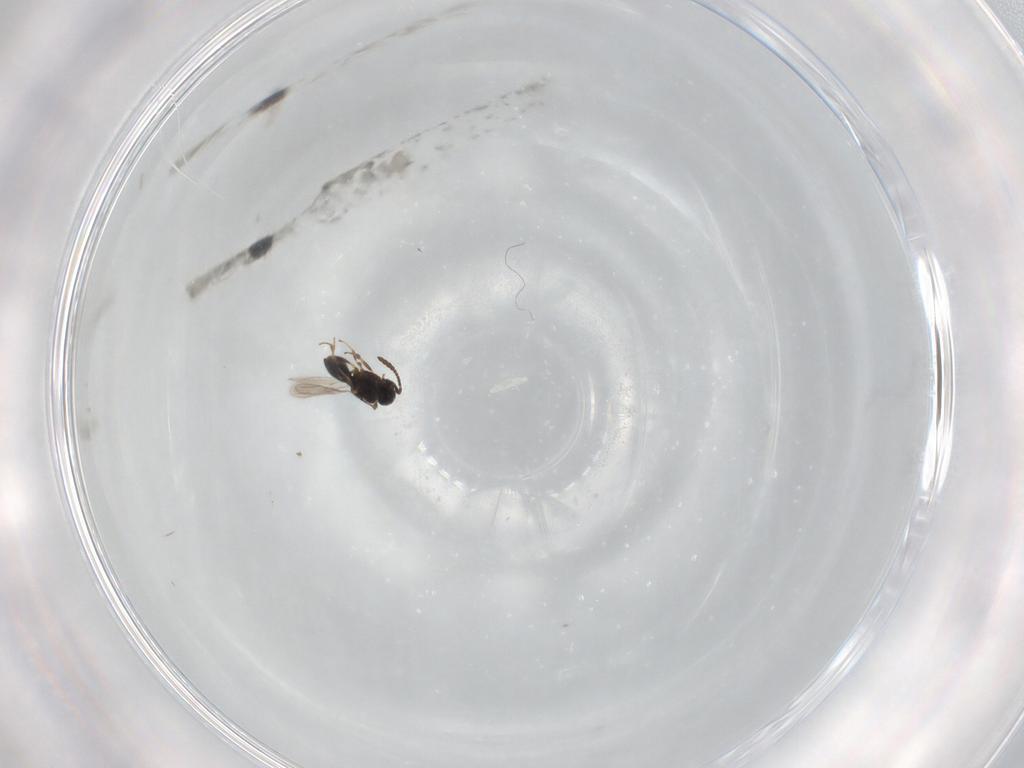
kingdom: Animalia
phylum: Arthropoda
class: Insecta
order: Hymenoptera
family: Scelionidae
